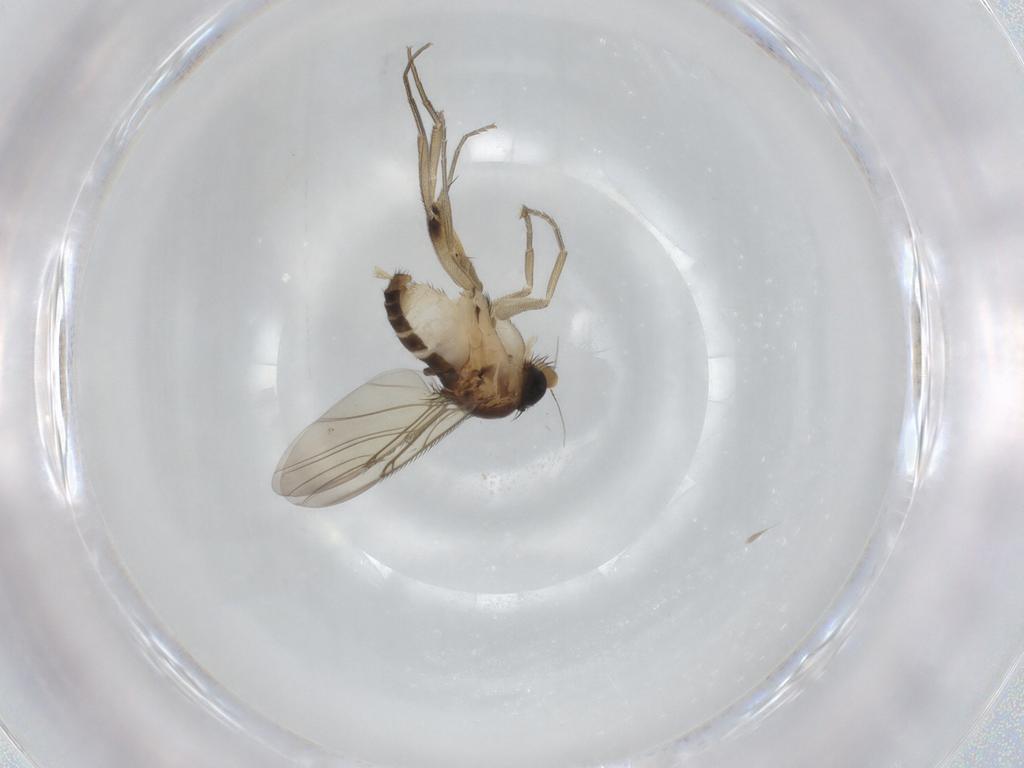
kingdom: Animalia
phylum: Arthropoda
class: Insecta
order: Diptera
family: Phoridae
